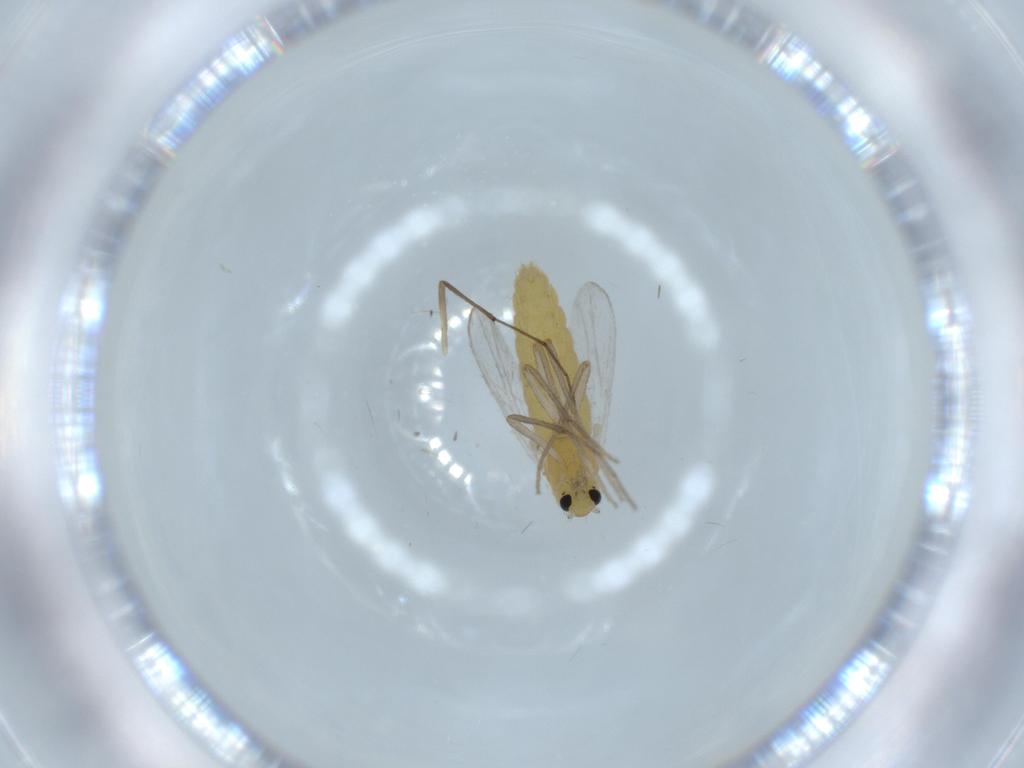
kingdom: Animalia
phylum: Arthropoda
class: Insecta
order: Diptera
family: Chironomidae
